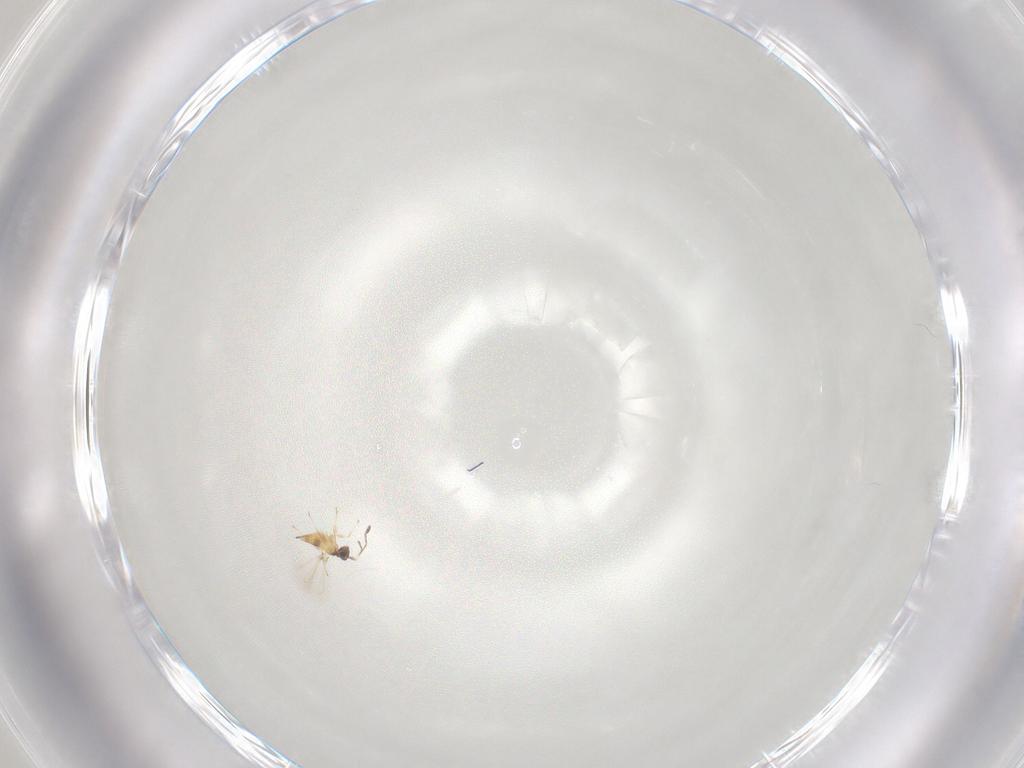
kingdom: Animalia
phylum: Arthropoda
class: Insecta
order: Hymenoptera
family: Mymaridae
